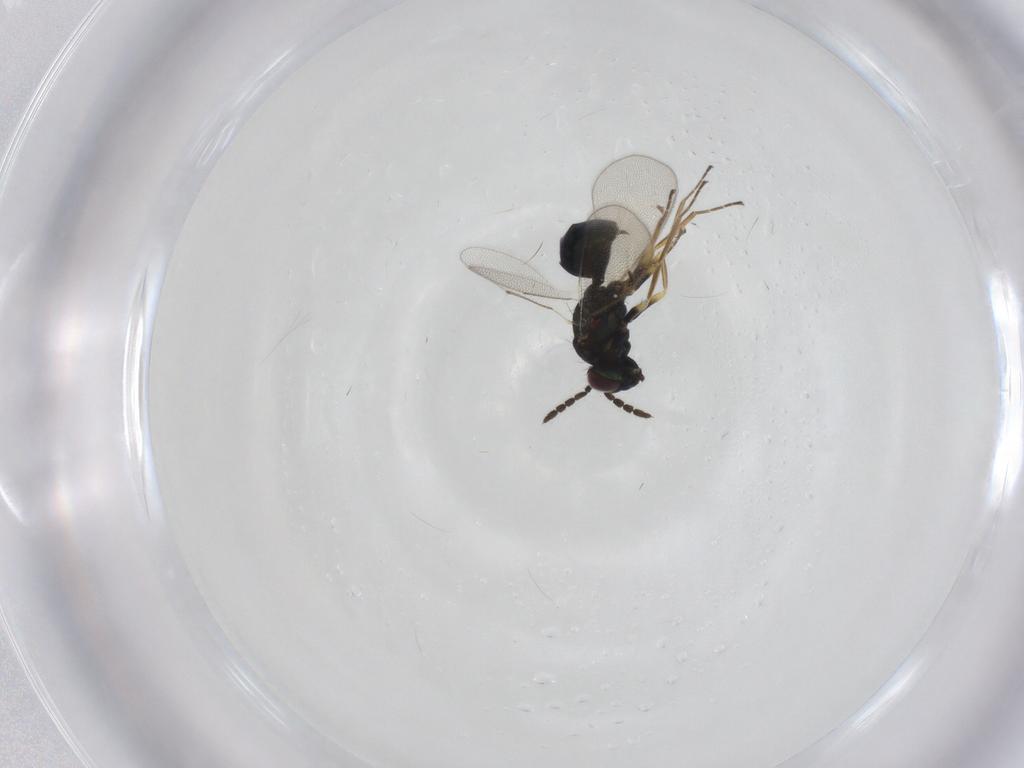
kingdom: Animalia
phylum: Arthropoda
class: Insecta
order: Hymenoptera
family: Eulophidae
